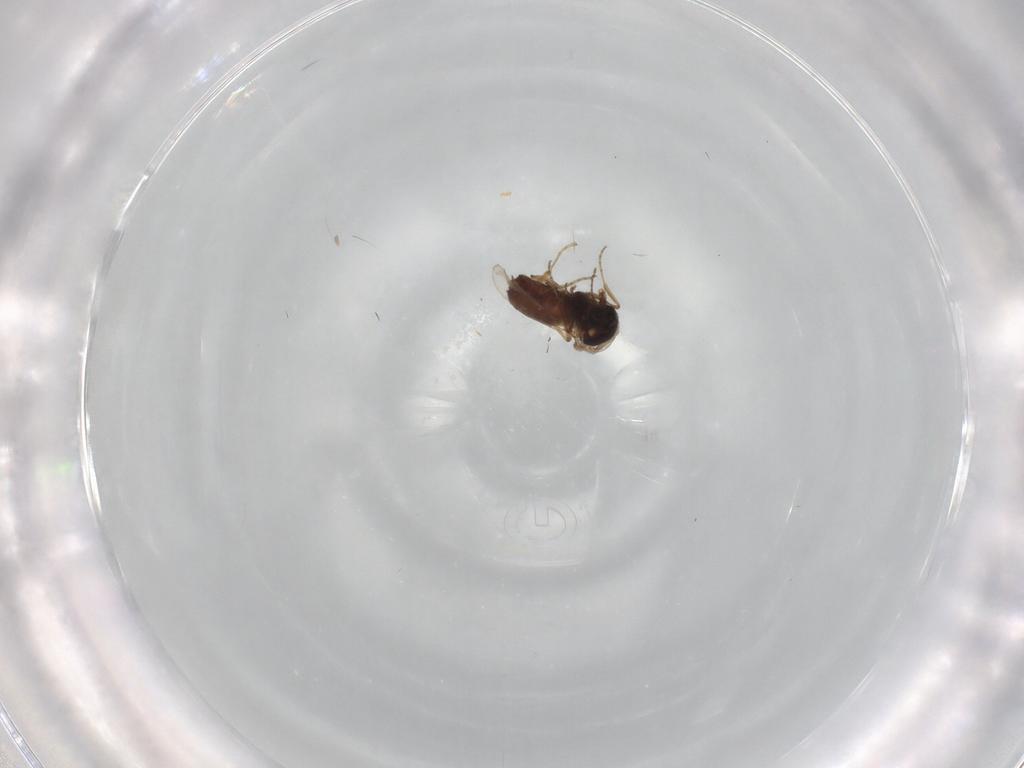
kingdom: Animalia
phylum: Arthropoda
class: Insecta
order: Diptera
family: Ceratopogonidae
